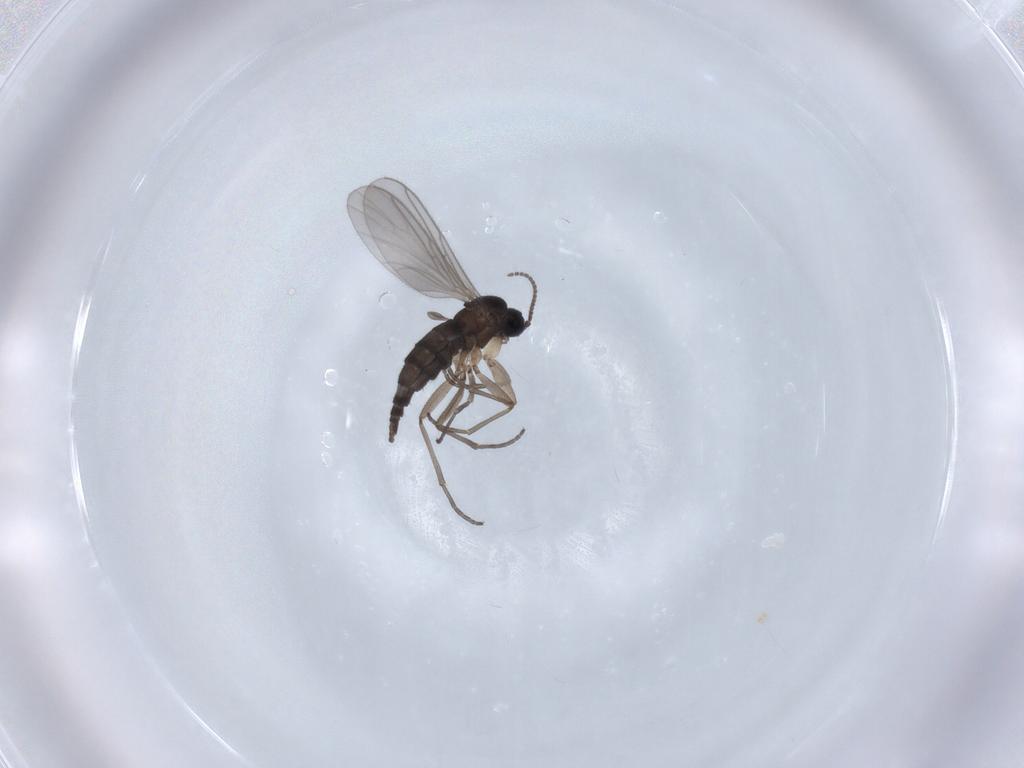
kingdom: Animalia
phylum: Arthropoda
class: Insecta
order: Diptera
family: Sciaridae
